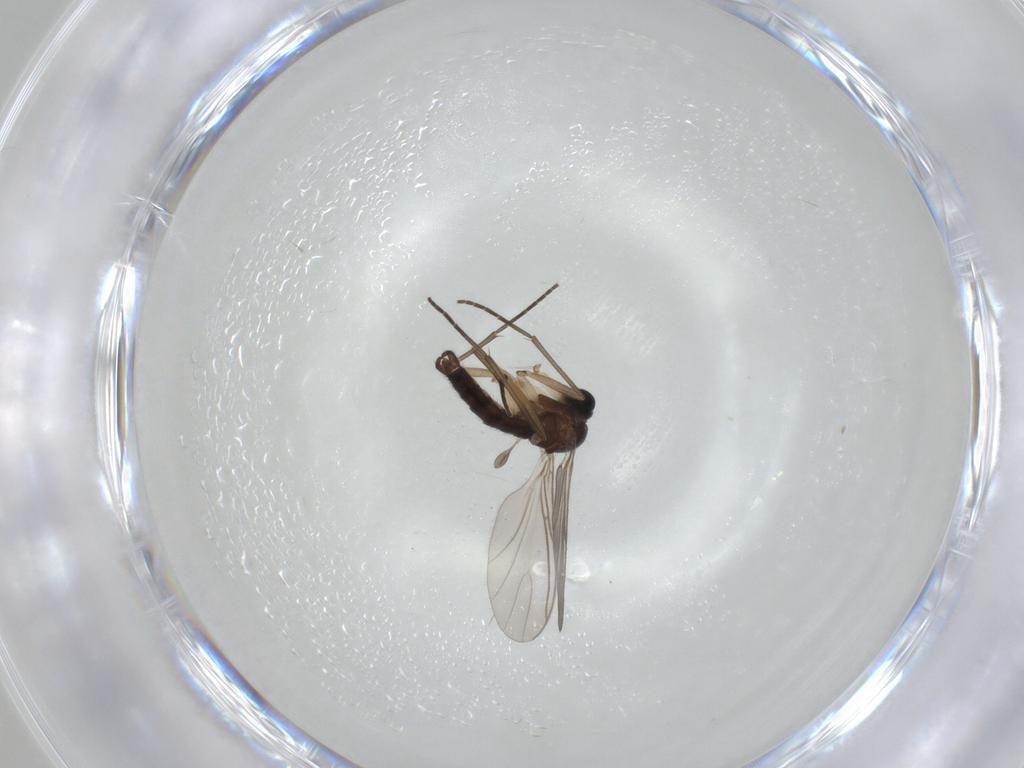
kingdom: Animalia
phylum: Arthropoda
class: Insecta
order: Diptera
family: Sciaridae
